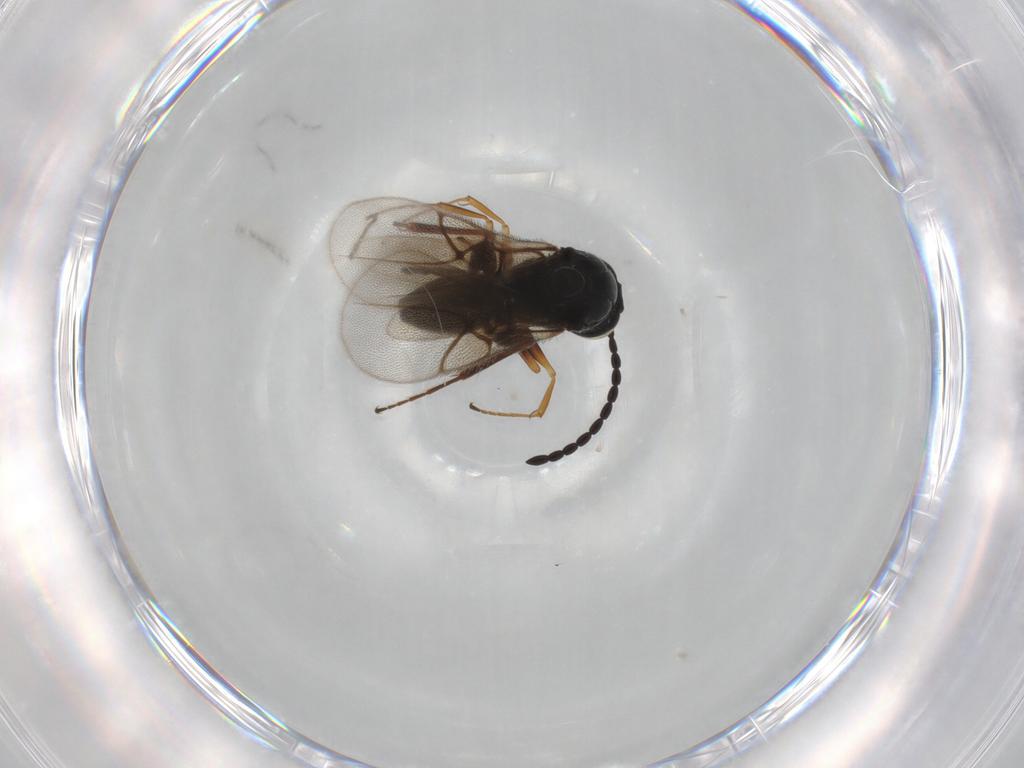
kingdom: Animalia
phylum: Arthropoda
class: Insecta
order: Hymenoptera
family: Figitidae
